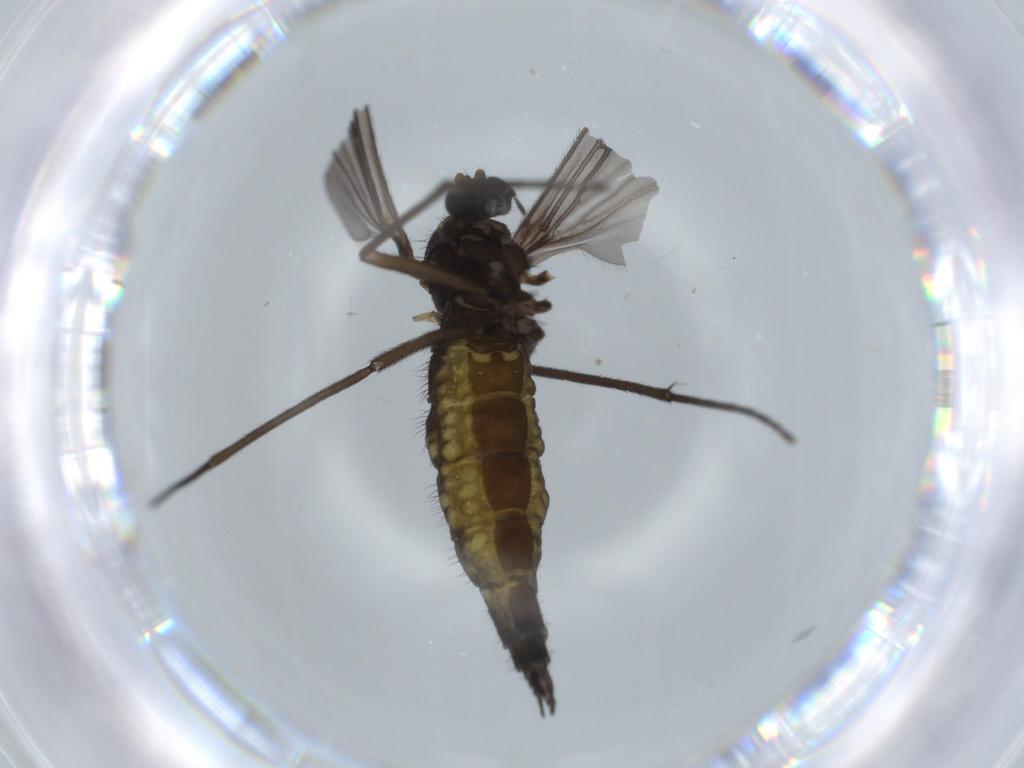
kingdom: Animalia
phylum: Arthropoda
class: Insecta
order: Diptera
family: Sciaridae
